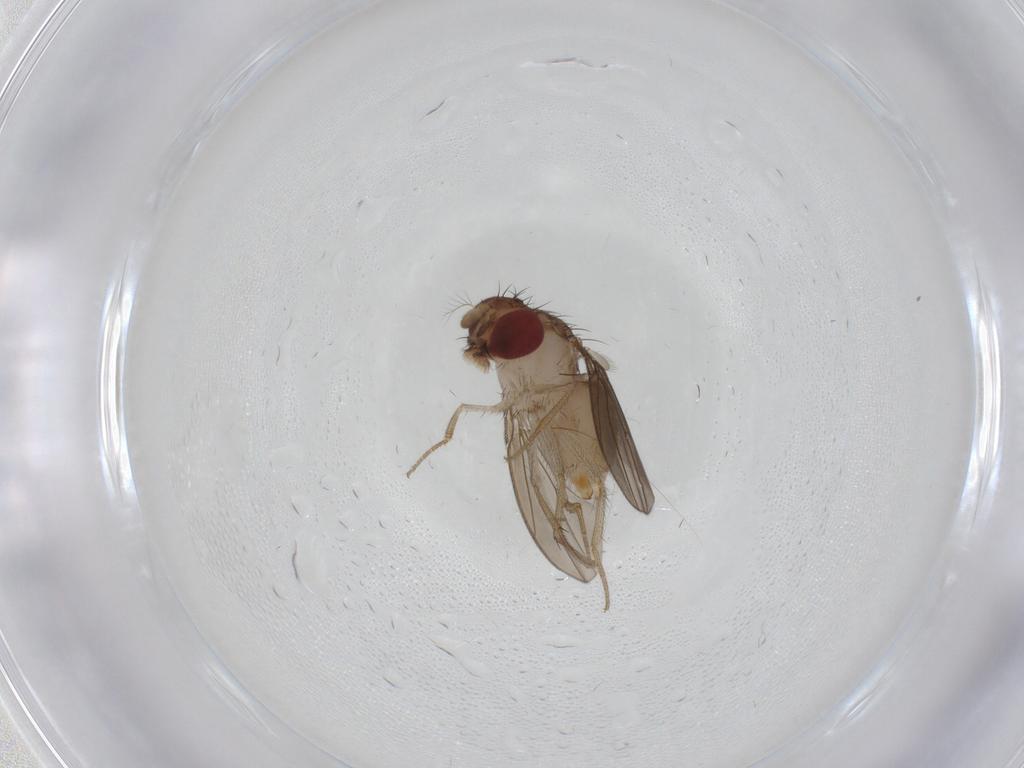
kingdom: Animalia
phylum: Arthropoda
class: Insecta
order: Diptera
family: Drosophilidae
